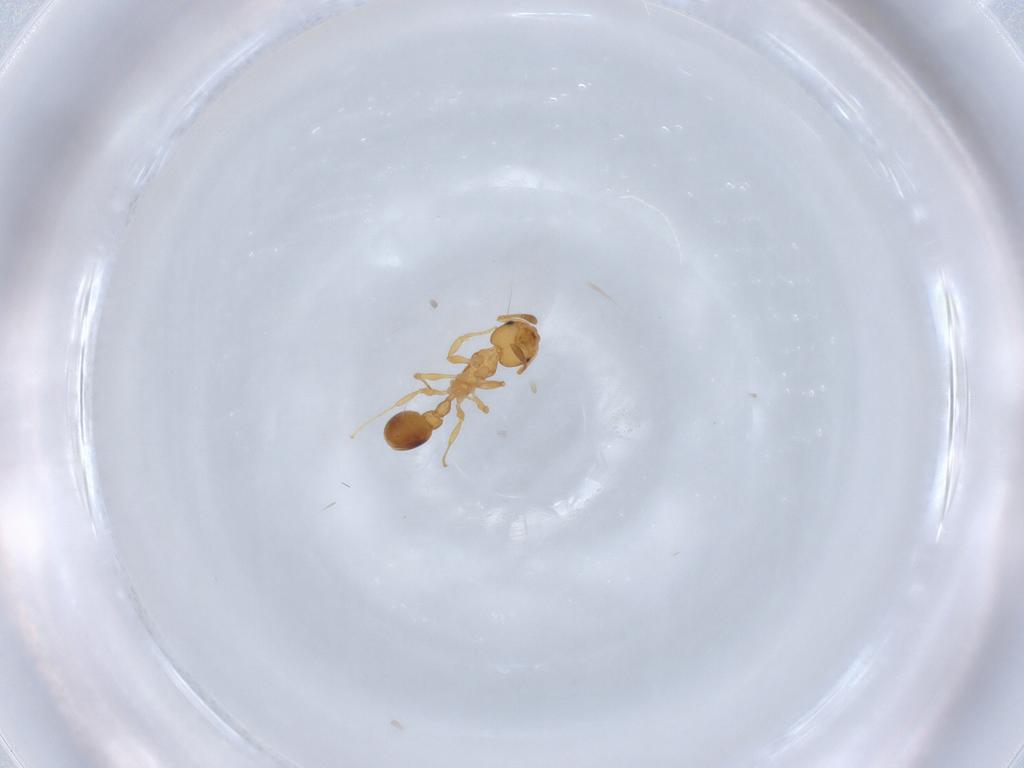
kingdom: Animalia
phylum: Arthropoda
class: Insecta
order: Hymenoptera
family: Formicidae
